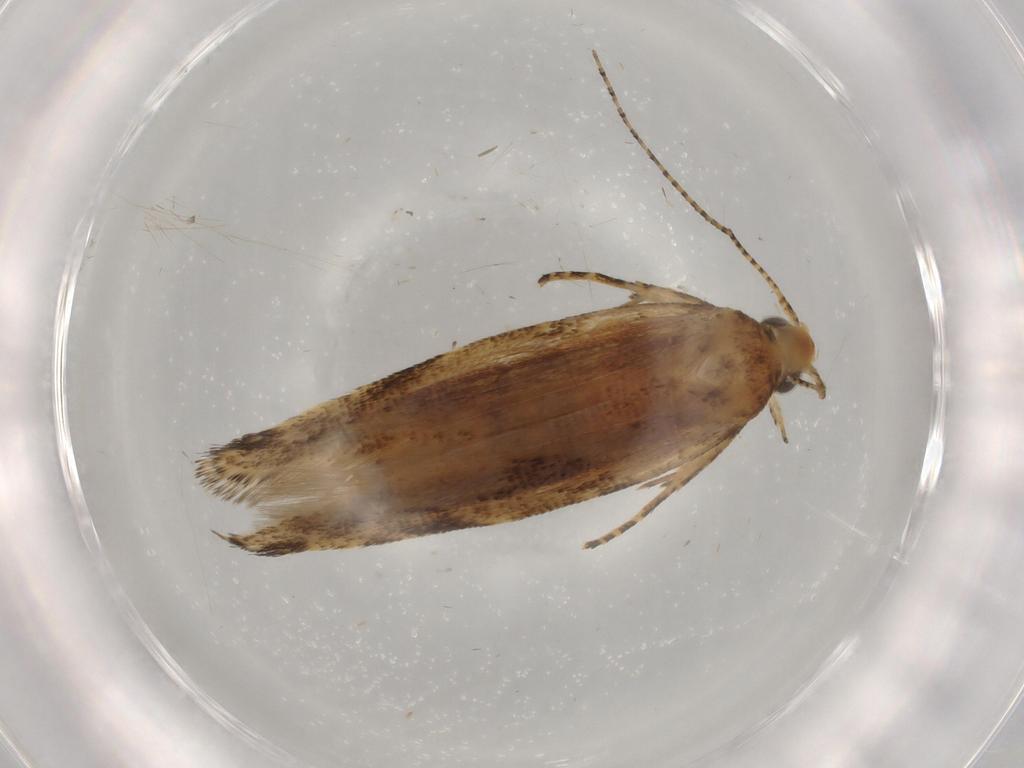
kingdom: Animalia
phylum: Arthropoda
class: Insecta
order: Lepidoptera
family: Gelechiidae
